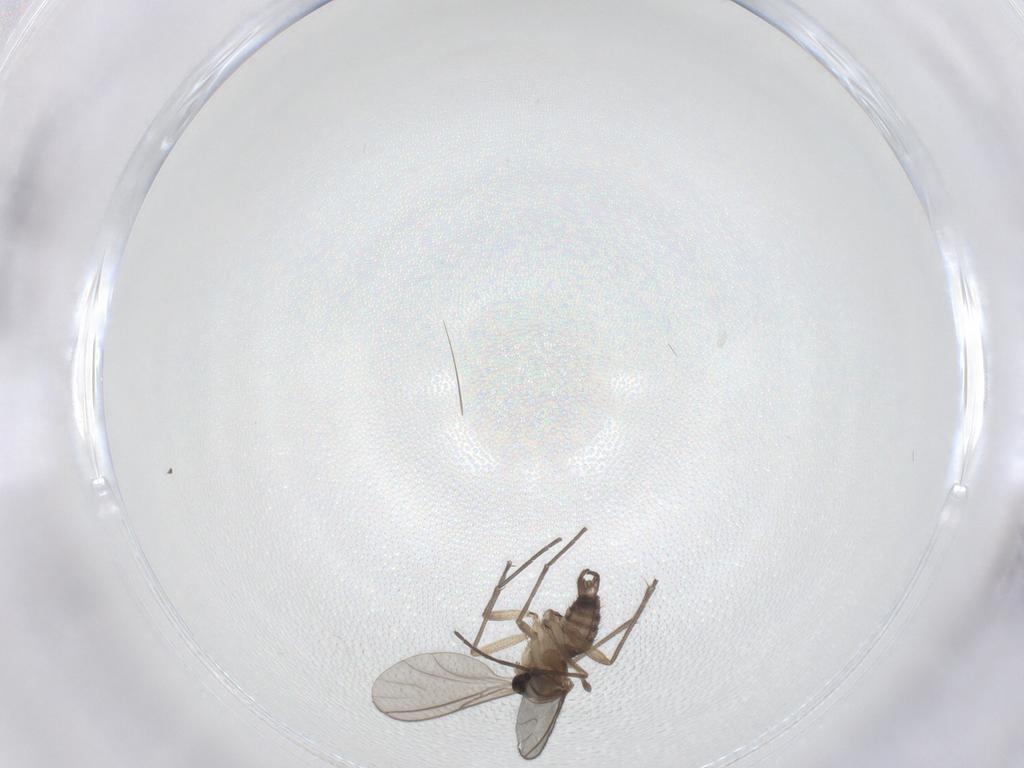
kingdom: Animalia
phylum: Arthropoda
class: Insecta
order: Diptera
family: Sciaridae
